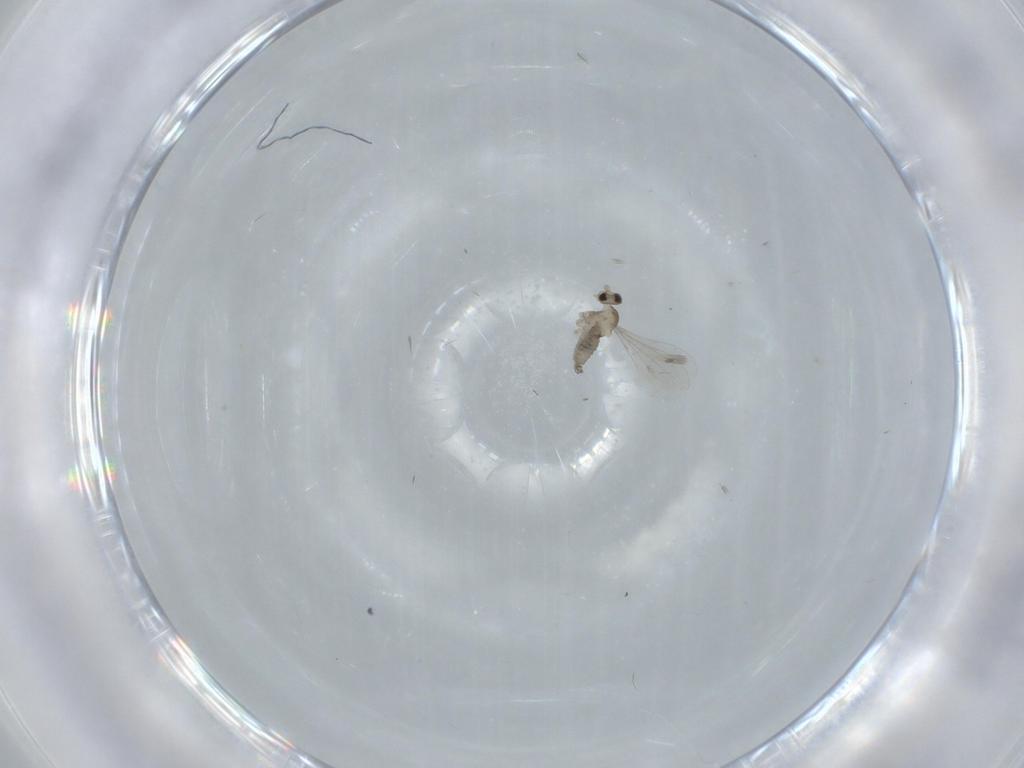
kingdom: Animalia
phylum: Arthropoda
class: Insecta
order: Diptera
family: Cecidomyiidae
